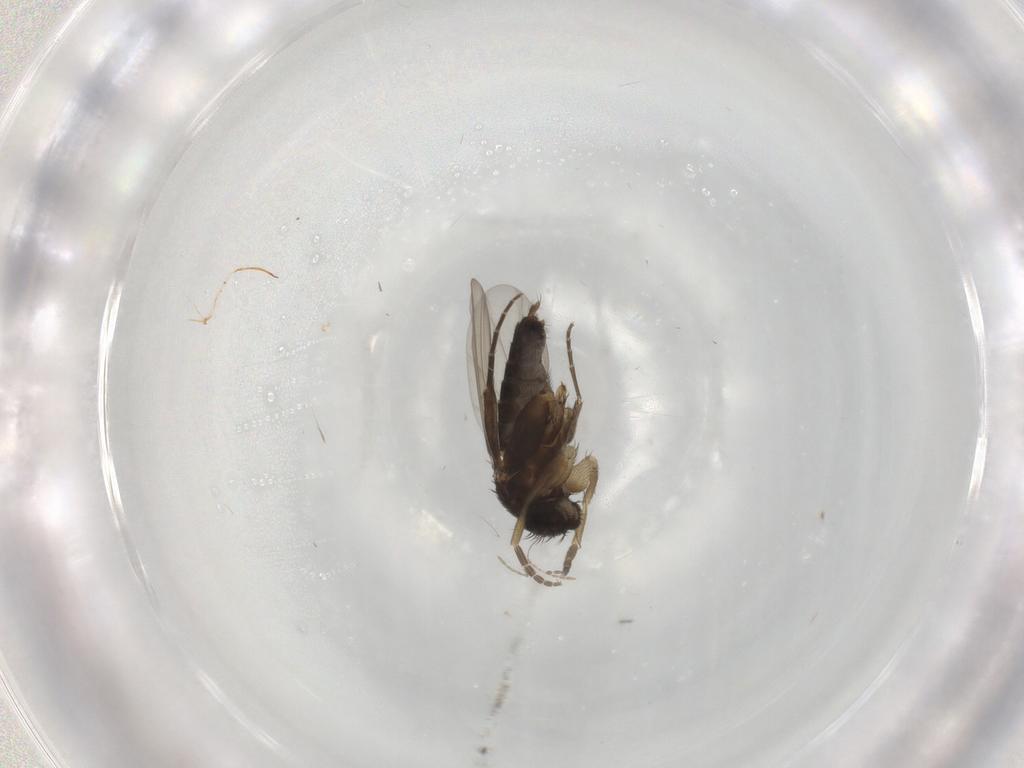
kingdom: Animalia
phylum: Arthropoda
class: Insecta
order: Diptera
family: Phoridae
